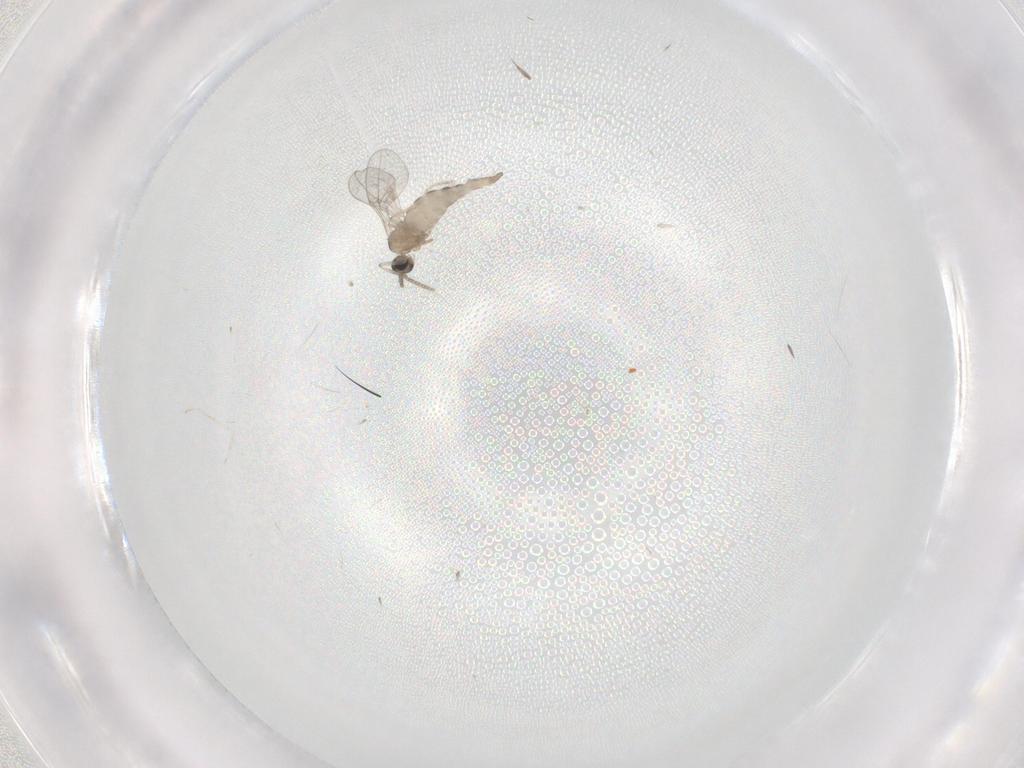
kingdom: Animalia
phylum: Arthropoda
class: Insecta
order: Diptera
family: Cecidomyiidae
